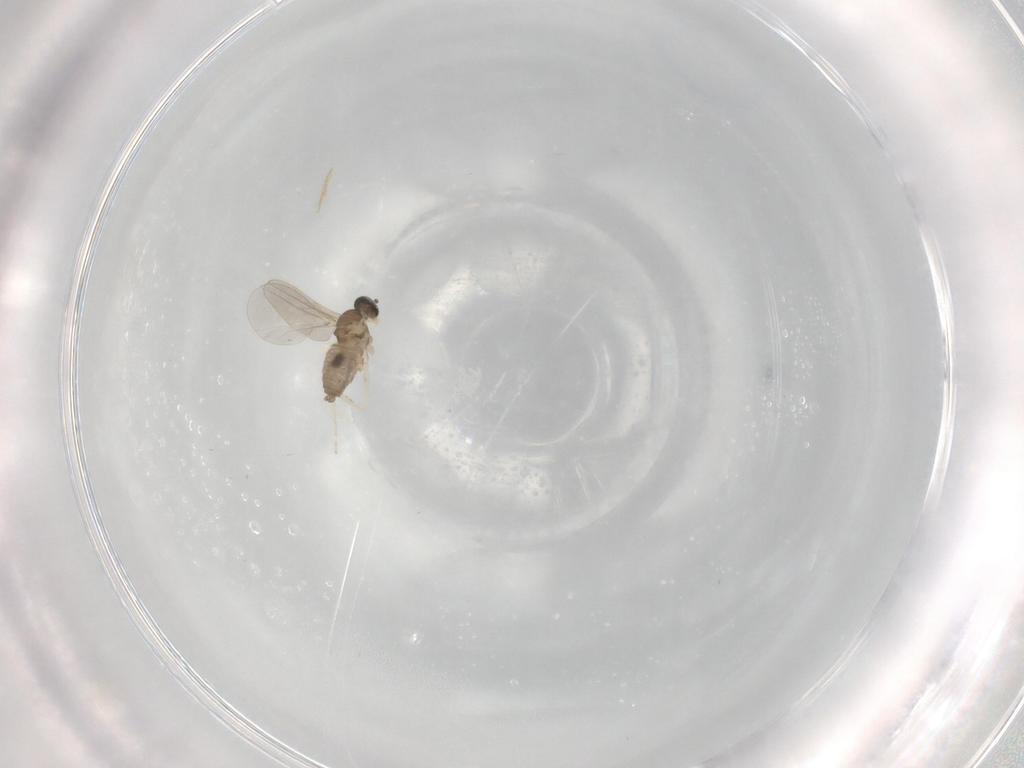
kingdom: Animalia
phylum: Arthropoda
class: Insecta
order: Diptera
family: Cecidomyiidae
